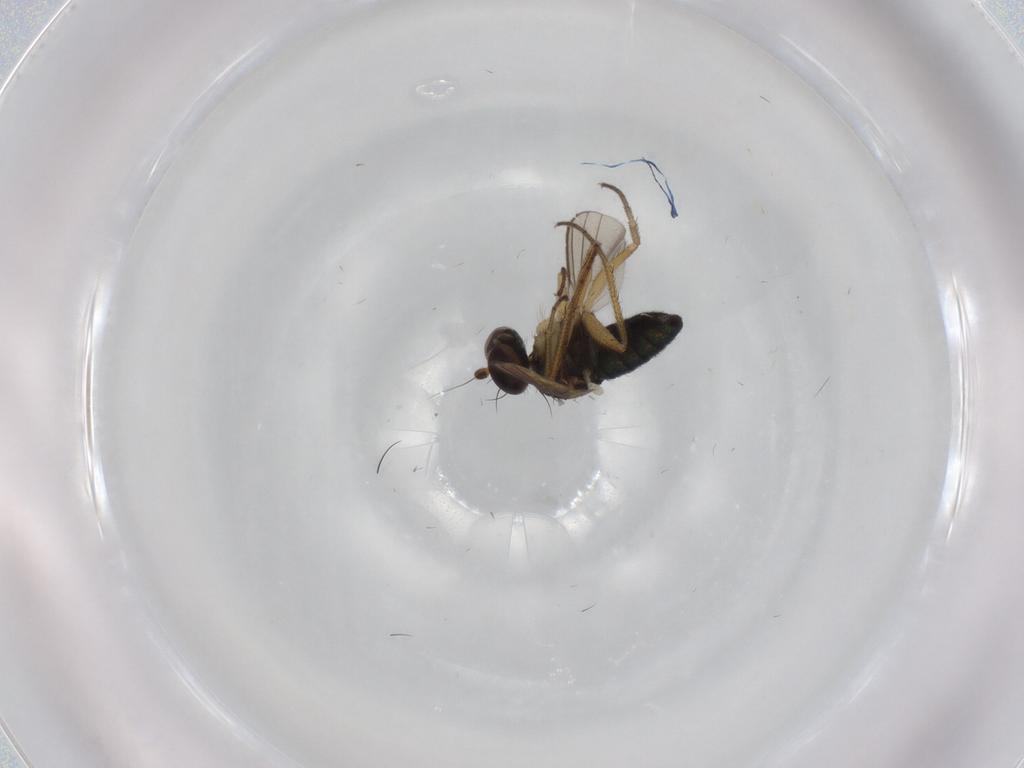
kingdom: Animalia
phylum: Arthropoda
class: Insecta
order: Diptera
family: Dolichopodidae
